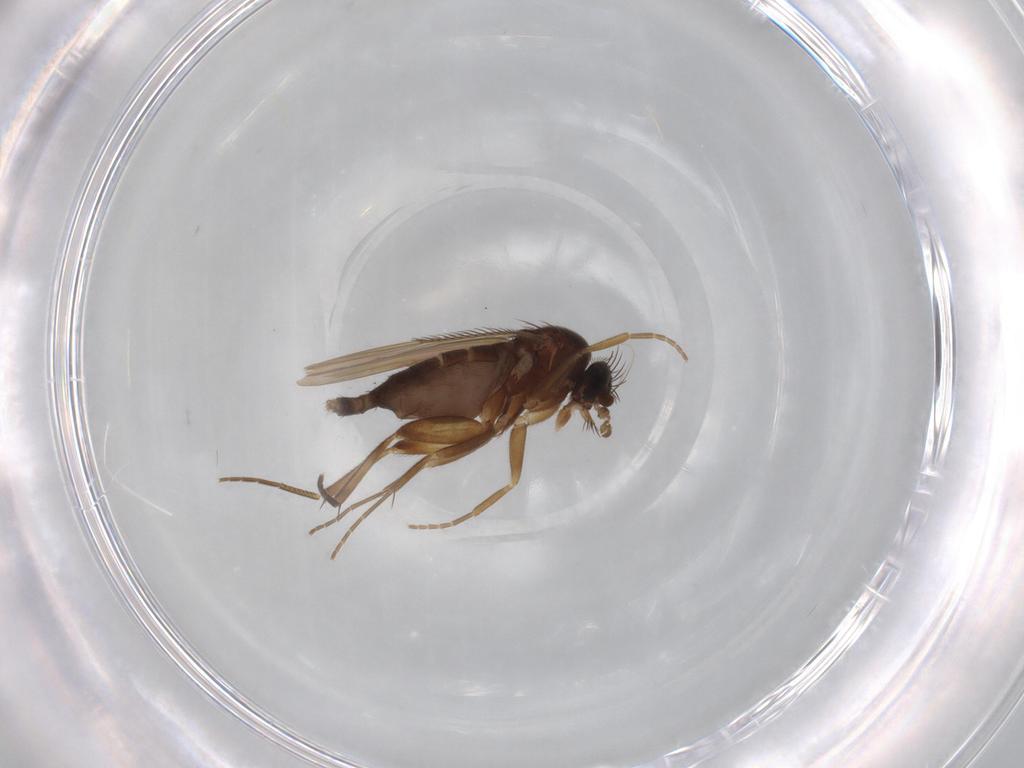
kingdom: Animalia
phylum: Arthropoda
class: Insecta
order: Diptera
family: Phoridae
